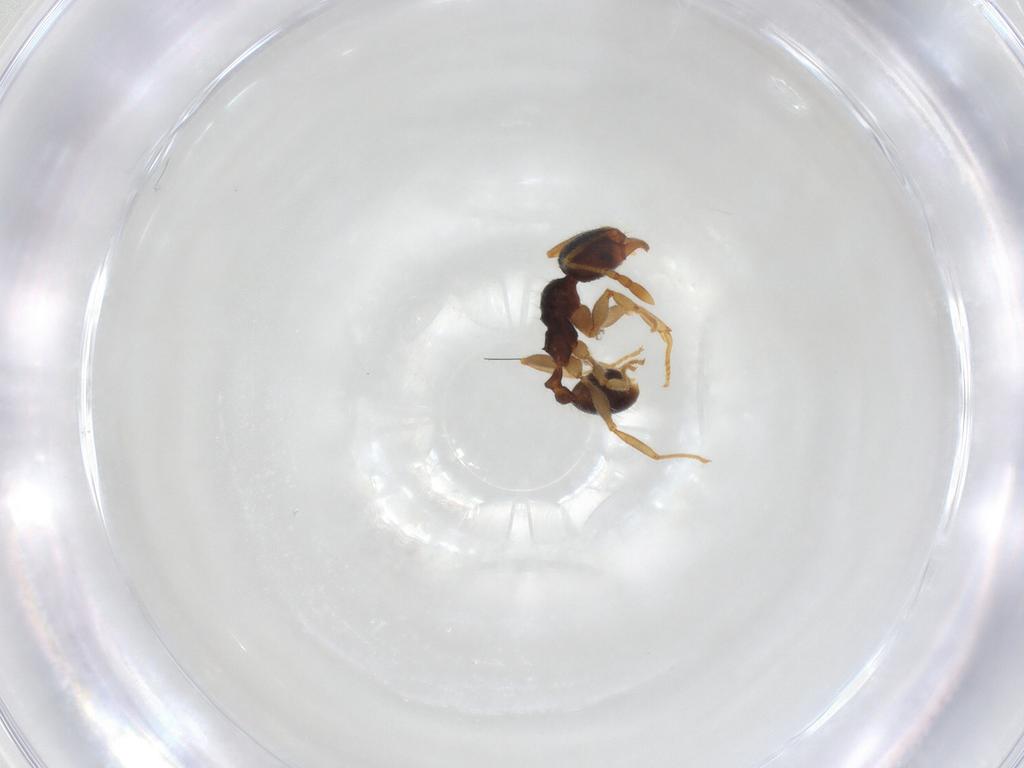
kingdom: Animalia
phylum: Arthropoda
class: Insecta
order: Hymenoptera
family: Formicidae
